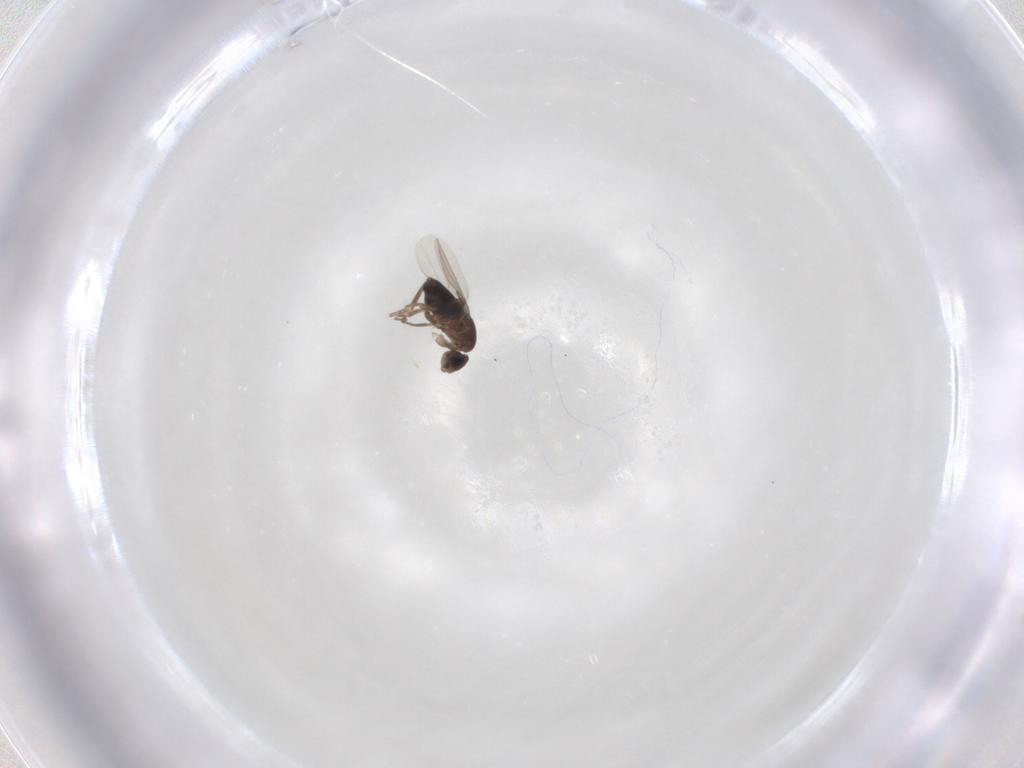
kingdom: Animalia
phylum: Arthropoda
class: Insecta
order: Diptera
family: Phoridae
